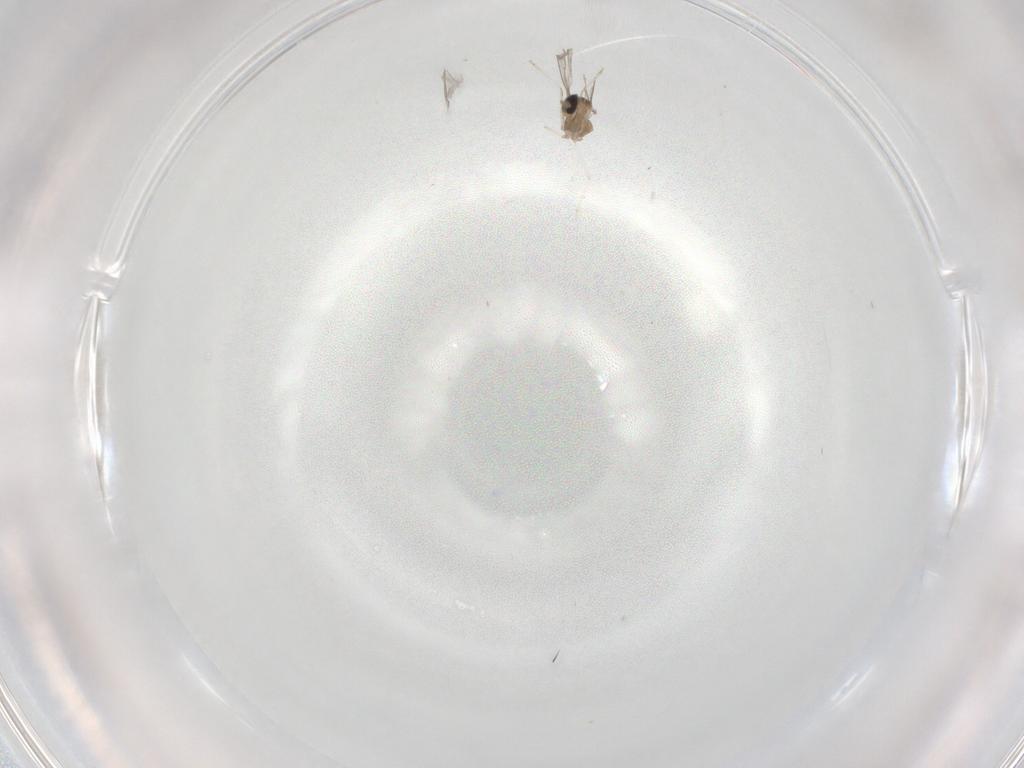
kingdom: Animalia
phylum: Arthropoda
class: Insecta
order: Diptera
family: Cecidomyiidae
